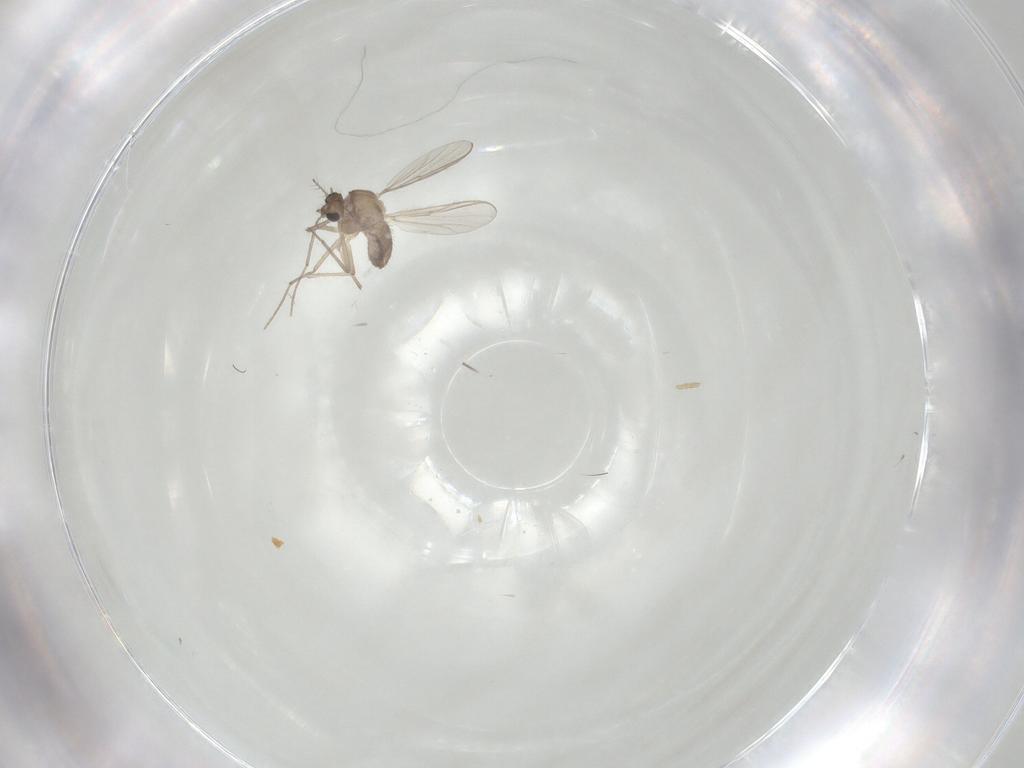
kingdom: Animalia
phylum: Arthropoda
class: Insecta
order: Diptera
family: Chironomidae
